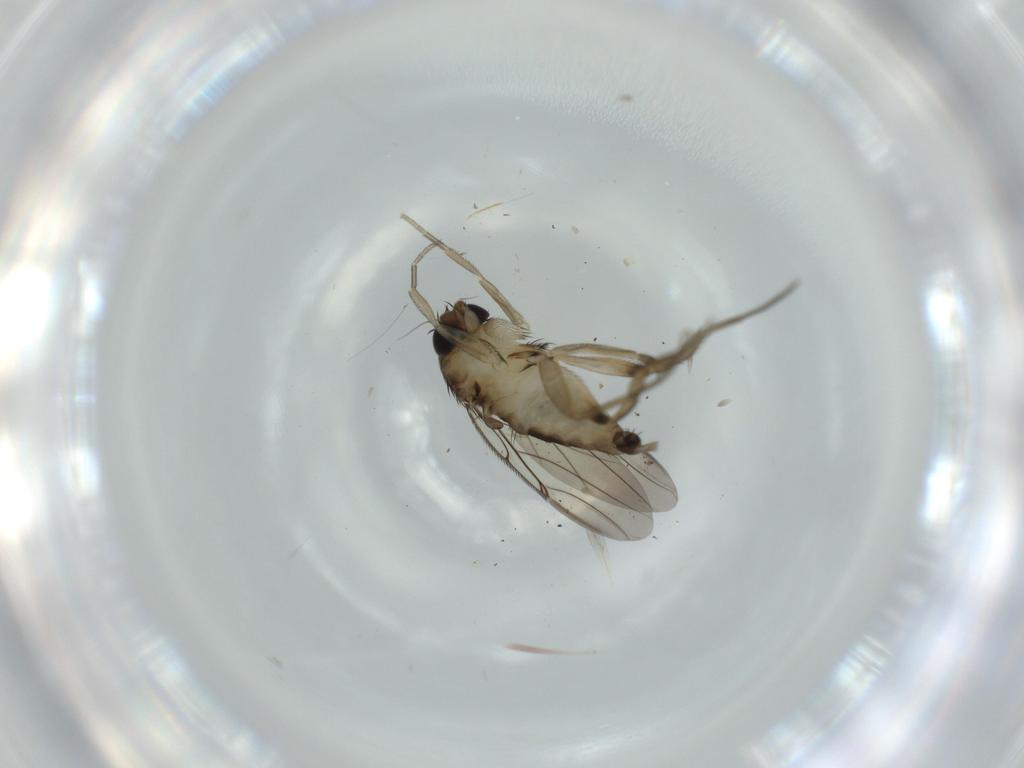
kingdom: Animalia
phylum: Arthropoda
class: Insecta
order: Diptera
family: Phoridae
